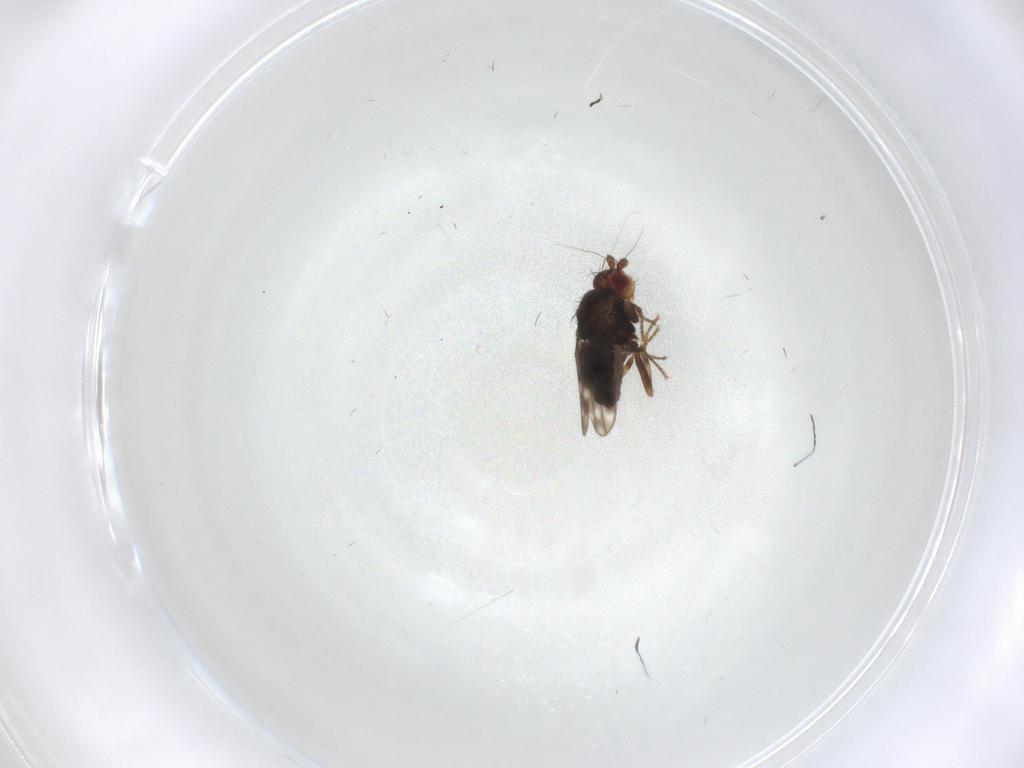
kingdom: Animalia
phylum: Arthropoda
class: Insecta
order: Diptera
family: Sphaeroceridae
